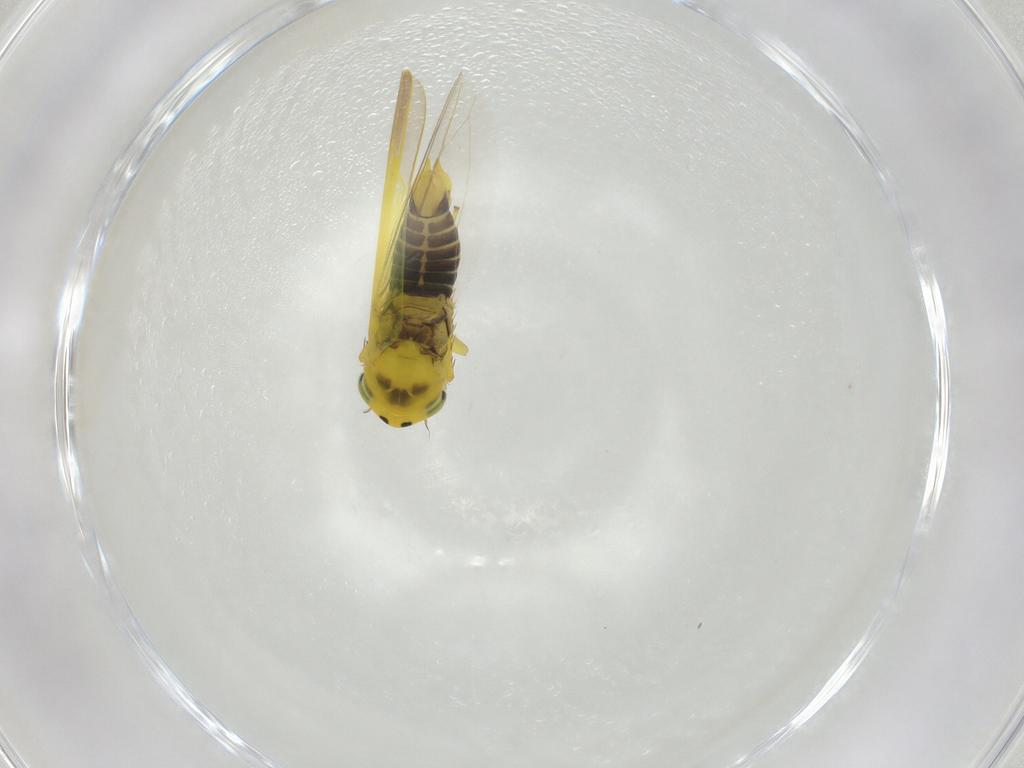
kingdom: Animalia
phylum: Arthropoda
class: Insecta
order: Hemiptera
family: Cicadellidae
